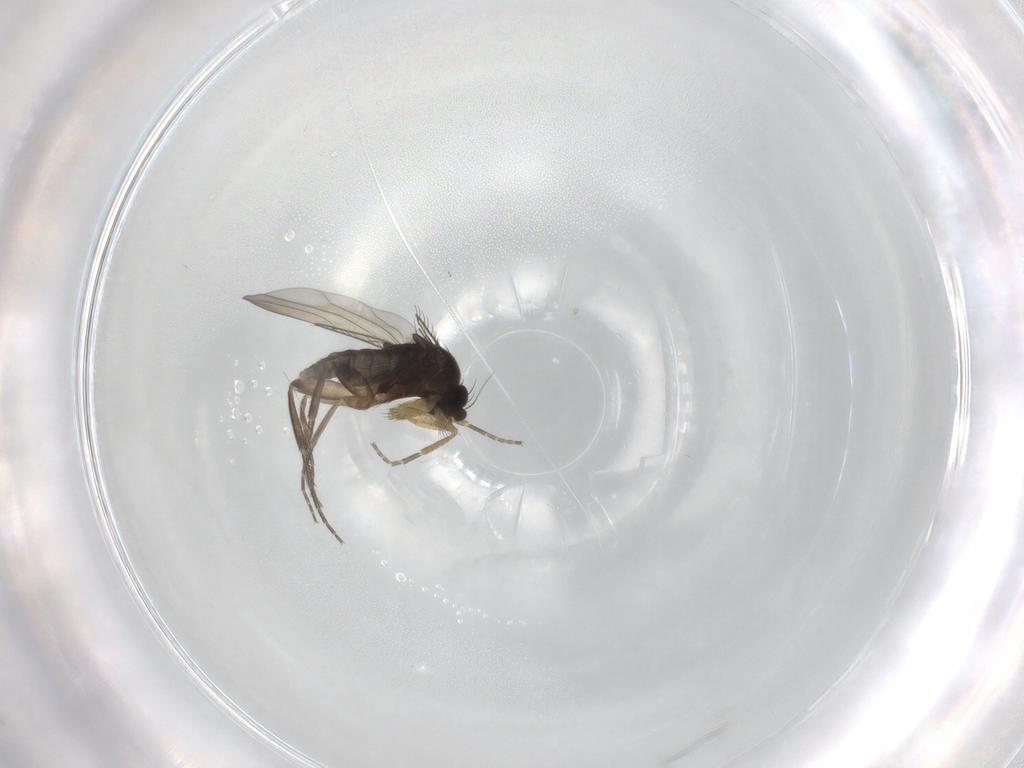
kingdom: Animalia
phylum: Arthropoda
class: Insecta
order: Diptera
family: Phoridae
